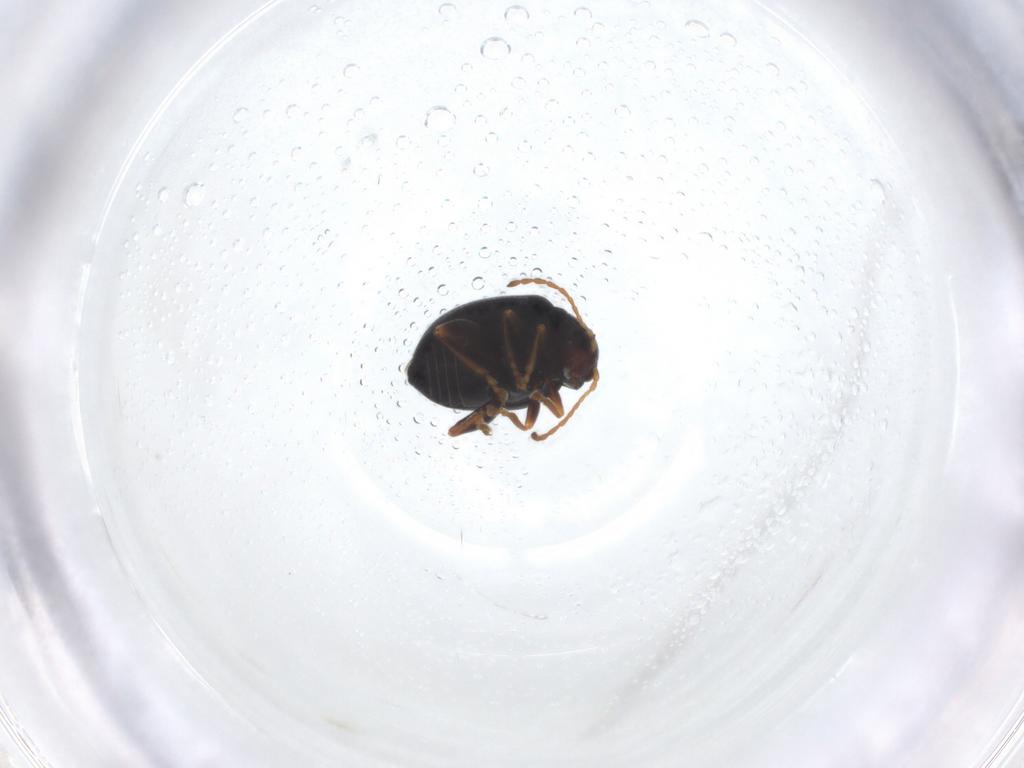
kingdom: Animalia
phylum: Arthropoda
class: Insecta
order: Coleoptera
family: Chrysomelidae
